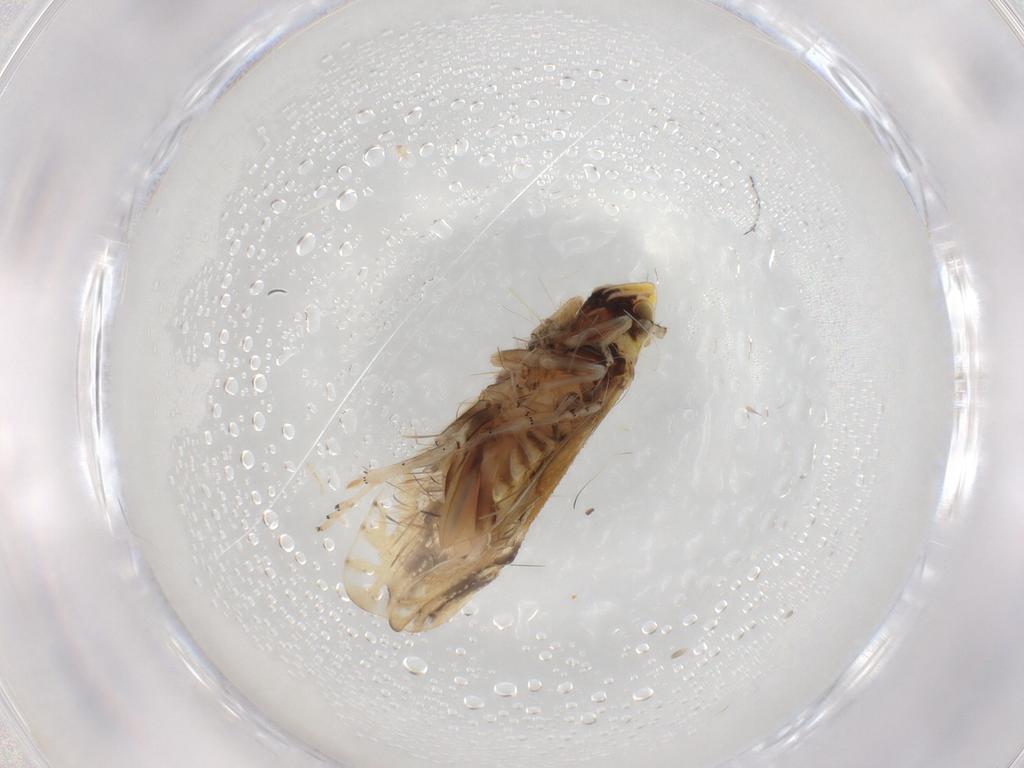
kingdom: Animalia
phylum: Arthropoda
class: Insecta
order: Hemiptera
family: Delphacidae
